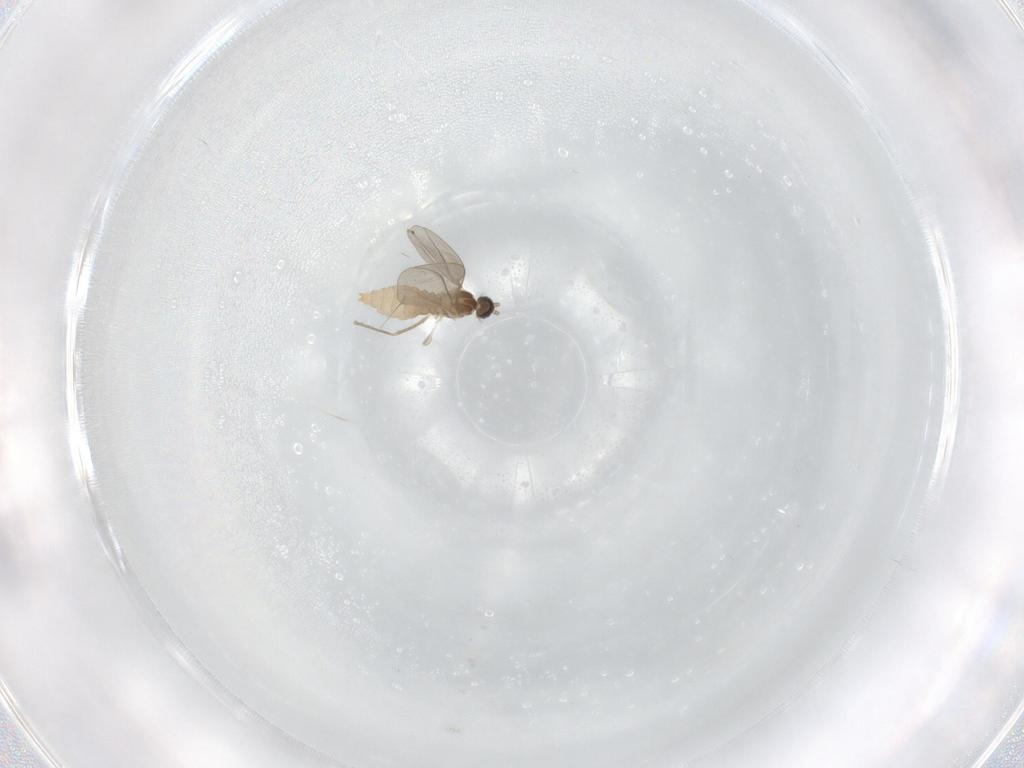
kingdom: Animalia
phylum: Arthropoda
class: Insecta
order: Diptera
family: Cecidomyiidae
